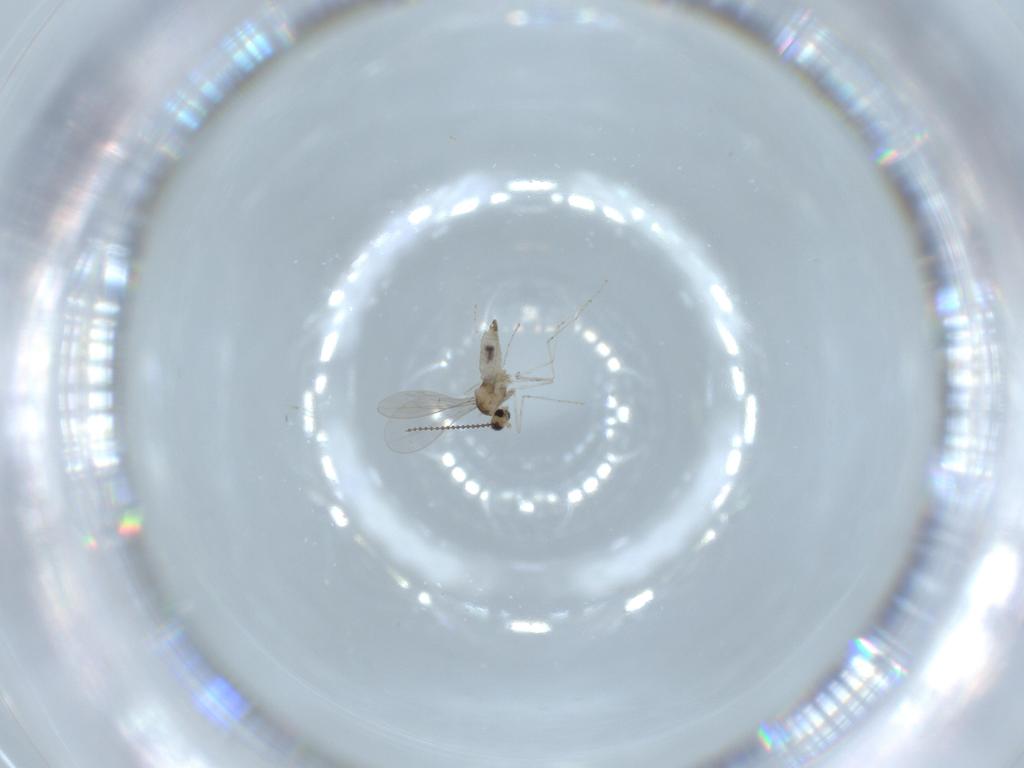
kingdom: Animalia
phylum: Arthropoda
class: Insecta
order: Diptera
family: Cecidomyiidae
